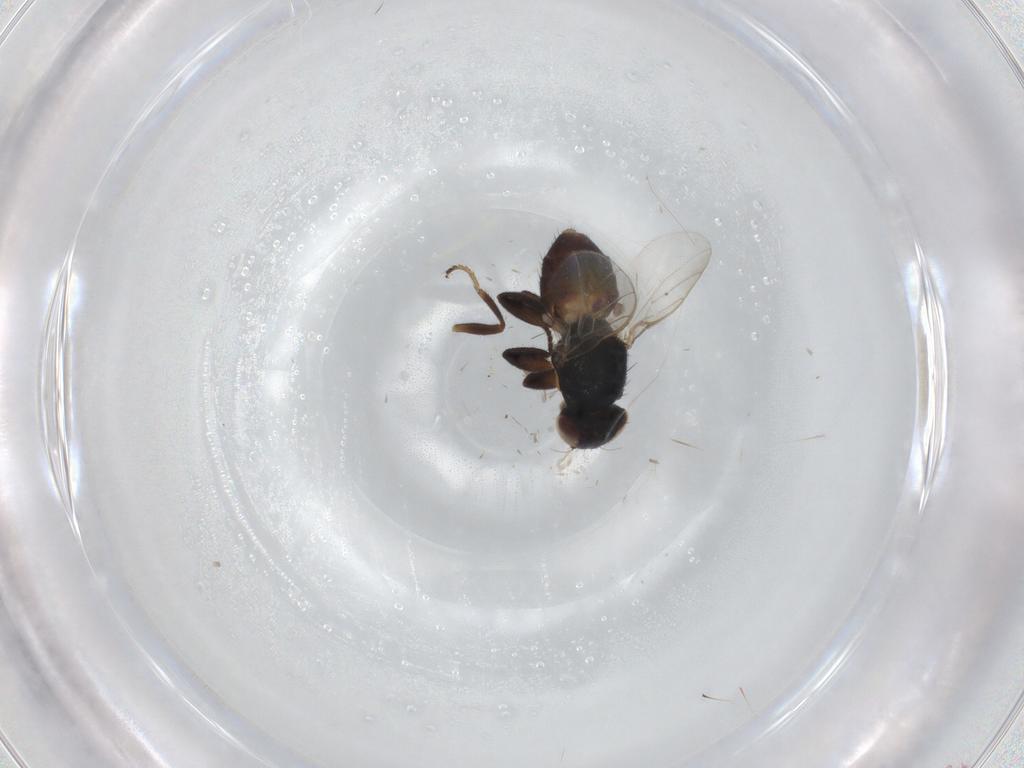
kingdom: Animalia
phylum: Arthropoda
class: Insecta
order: Diptera
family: Chloropidae
